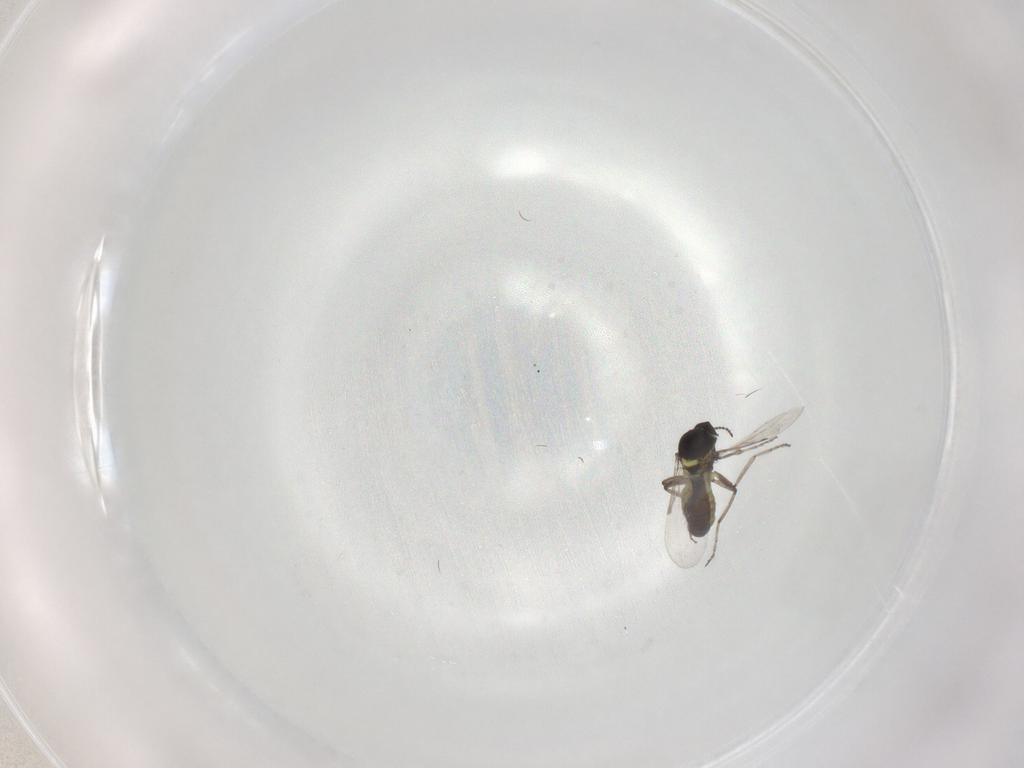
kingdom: Animalia
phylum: Arthropoda
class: Insecta
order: Diptera
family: Ceratopogonidae
